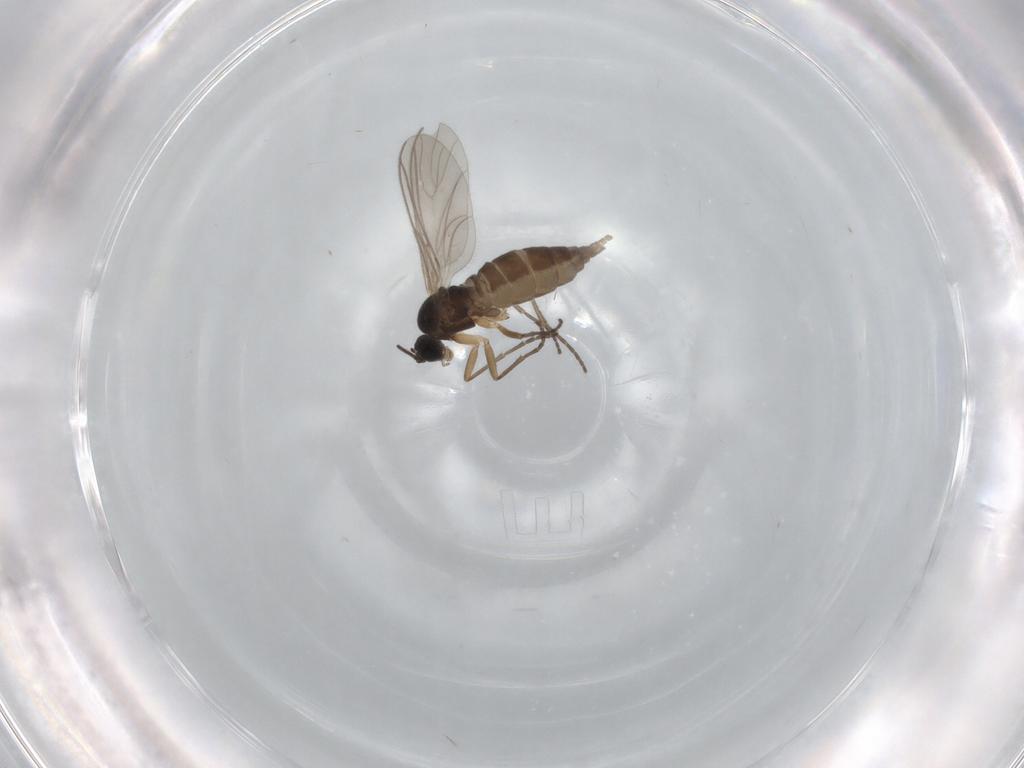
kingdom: Animalia
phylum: Arthropoda
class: Insecta
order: Diptera
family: Sciaridae
